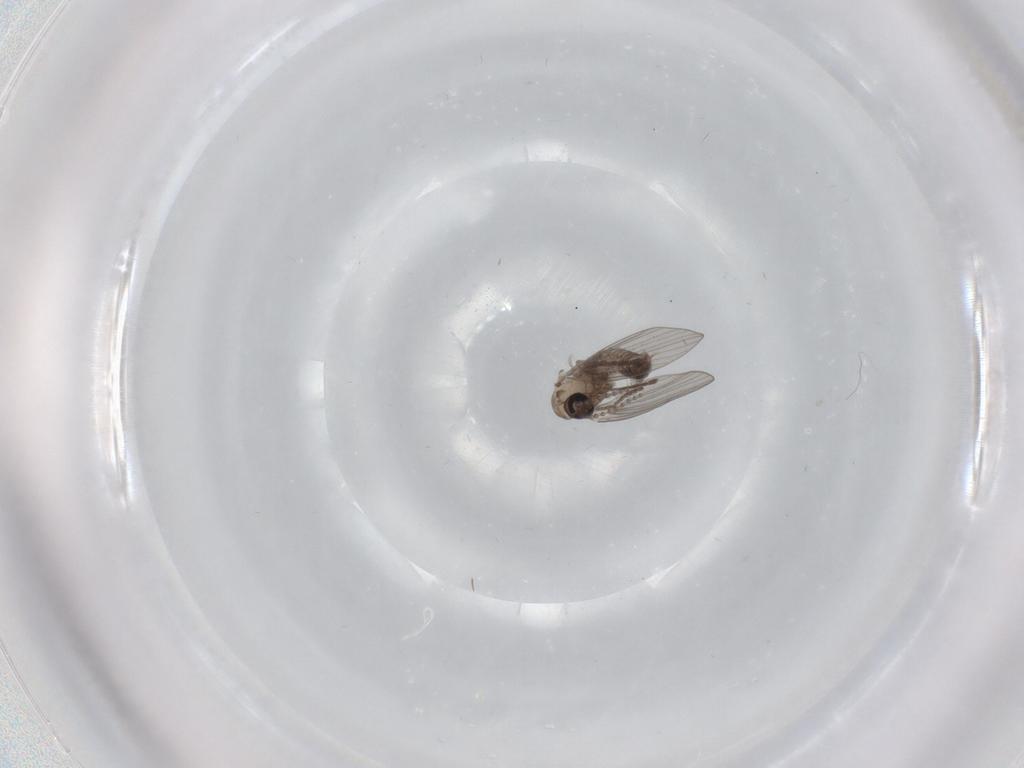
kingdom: Animalia
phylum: Arthropoda
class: Insecta
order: Diptera
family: Psychodidae
